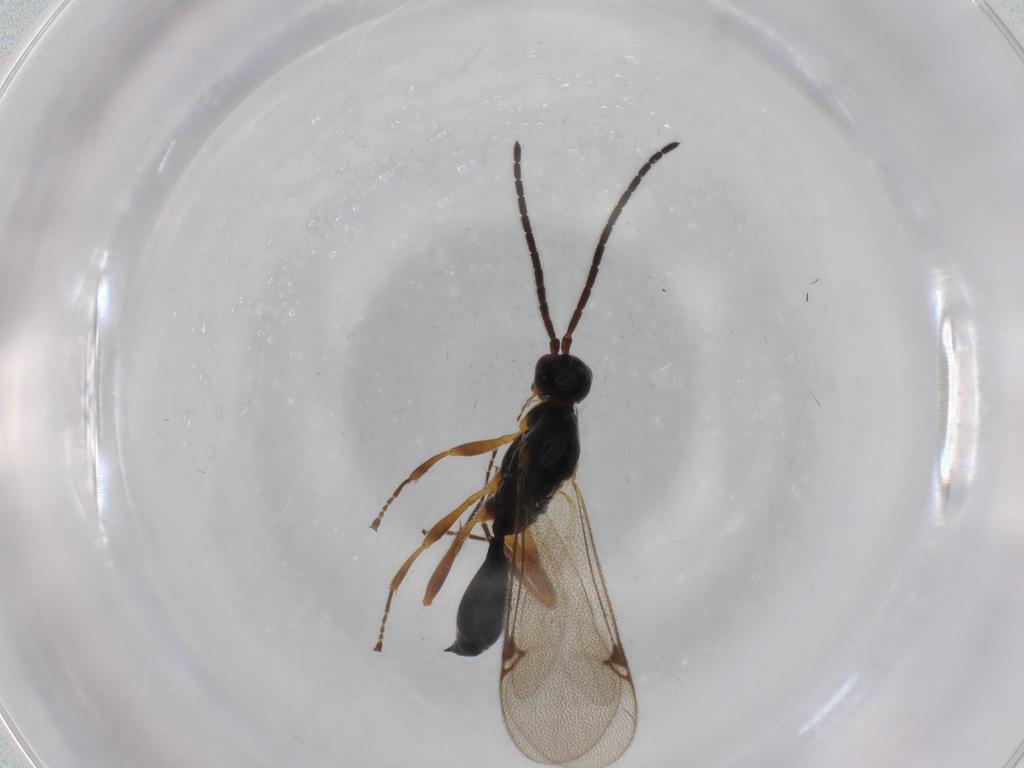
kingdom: Animalia
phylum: Arthropoda
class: Insecta
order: Hymenoptera
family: Proctotrupidae
